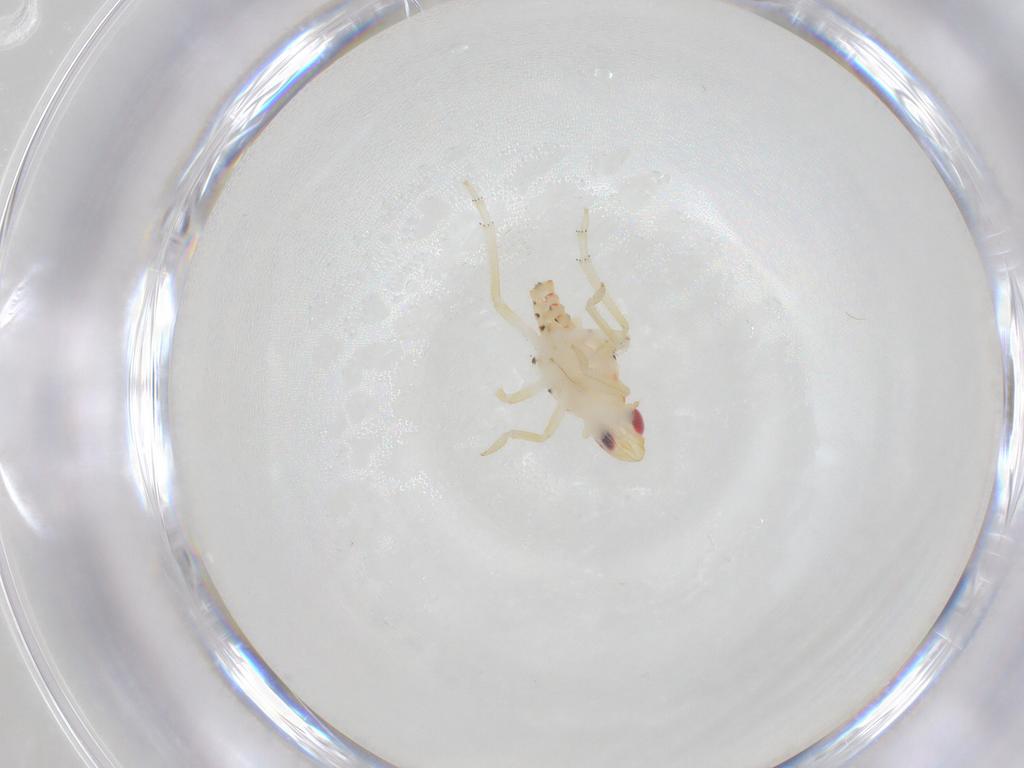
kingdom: Animalia
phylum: Arthropoda
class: Insecta
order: Hemiptera
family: Tropiduchidae
